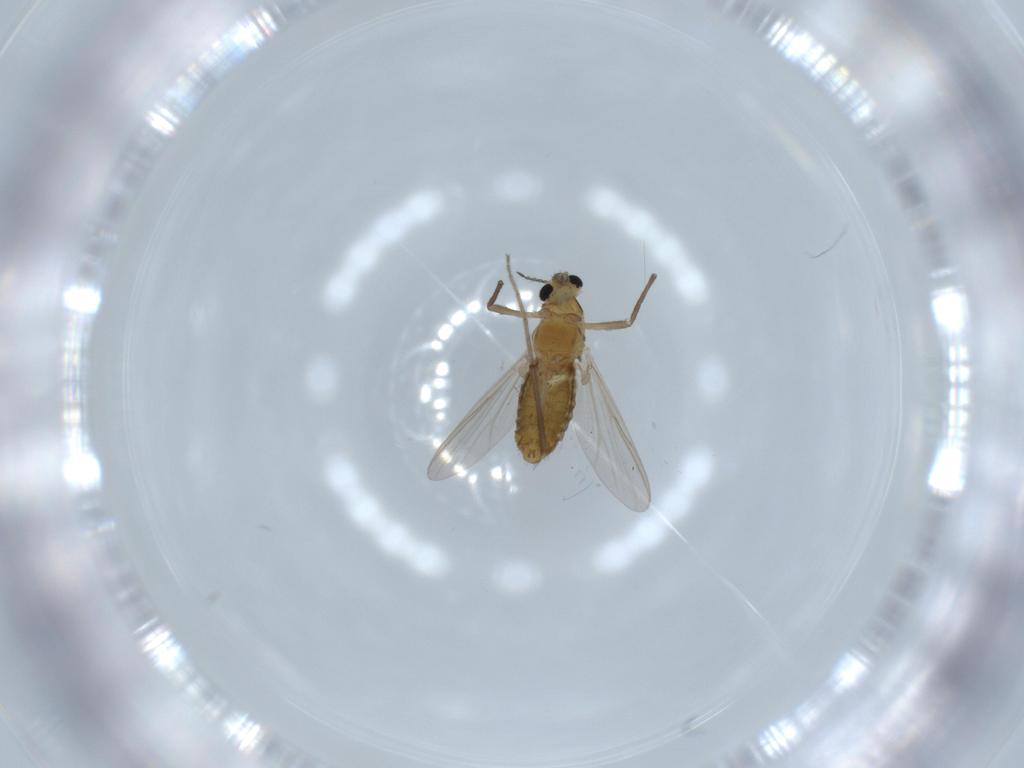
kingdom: Animalia
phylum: Arthropoda
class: Insecta
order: Diptera
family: Chironomidae
